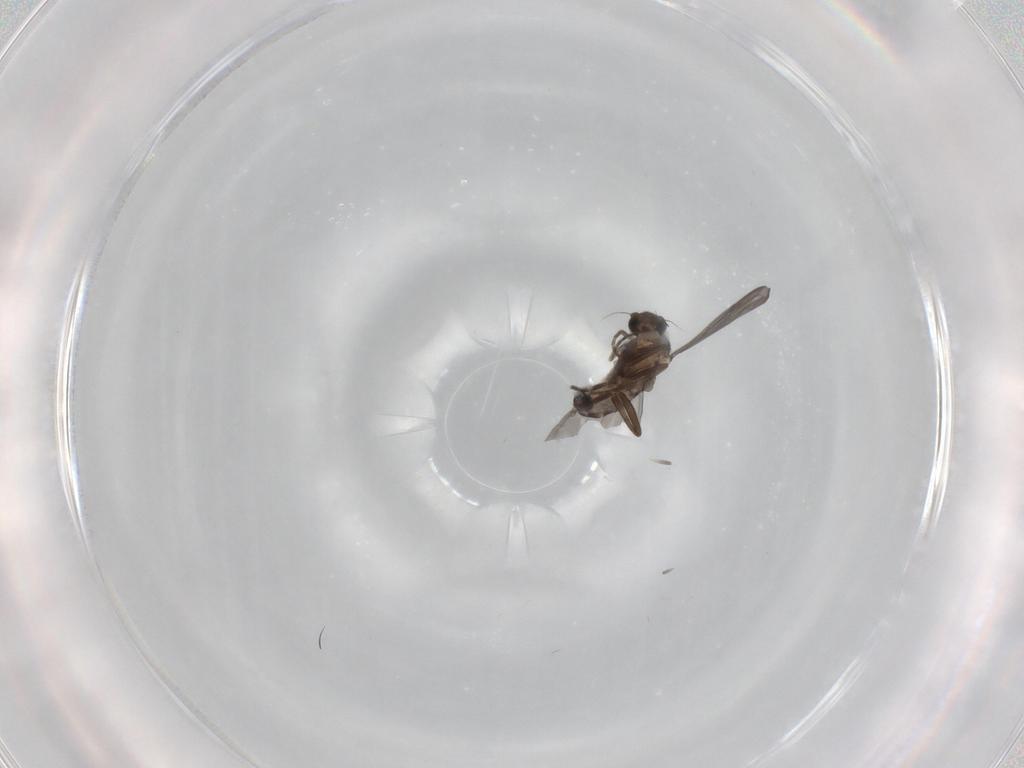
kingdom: Animalia
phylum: Arthropoda
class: Insecta
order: Diptera
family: Phoridae
